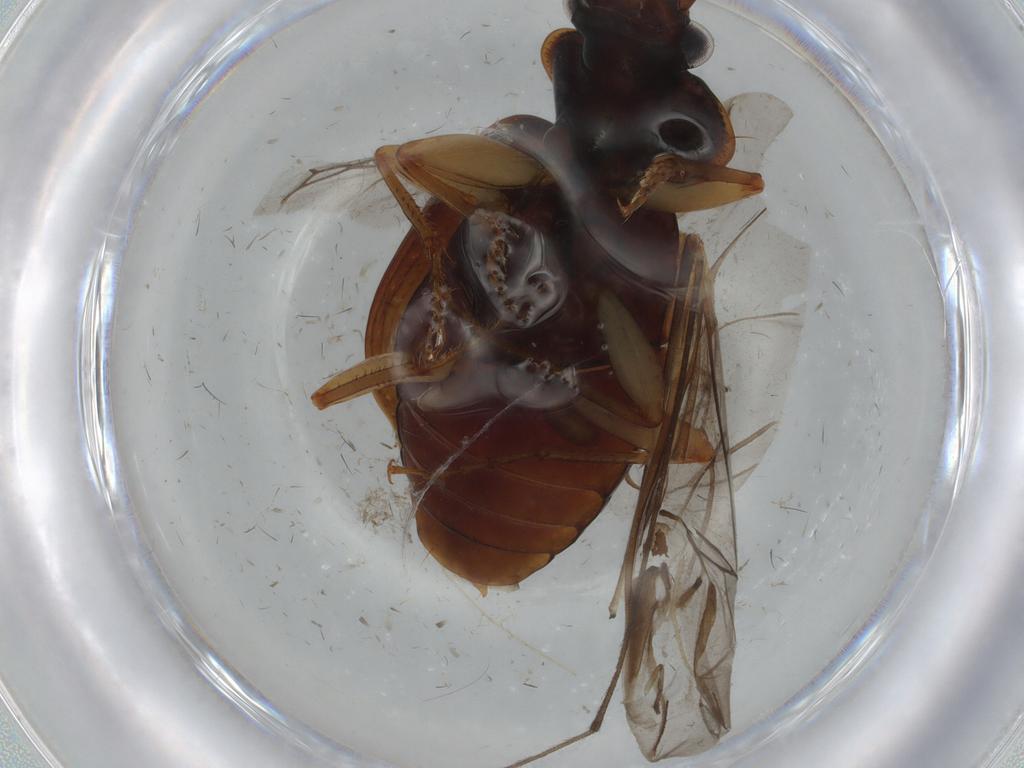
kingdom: Animalia
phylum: Arthropoda
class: Insecta
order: Coleoptera
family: Carabidae
